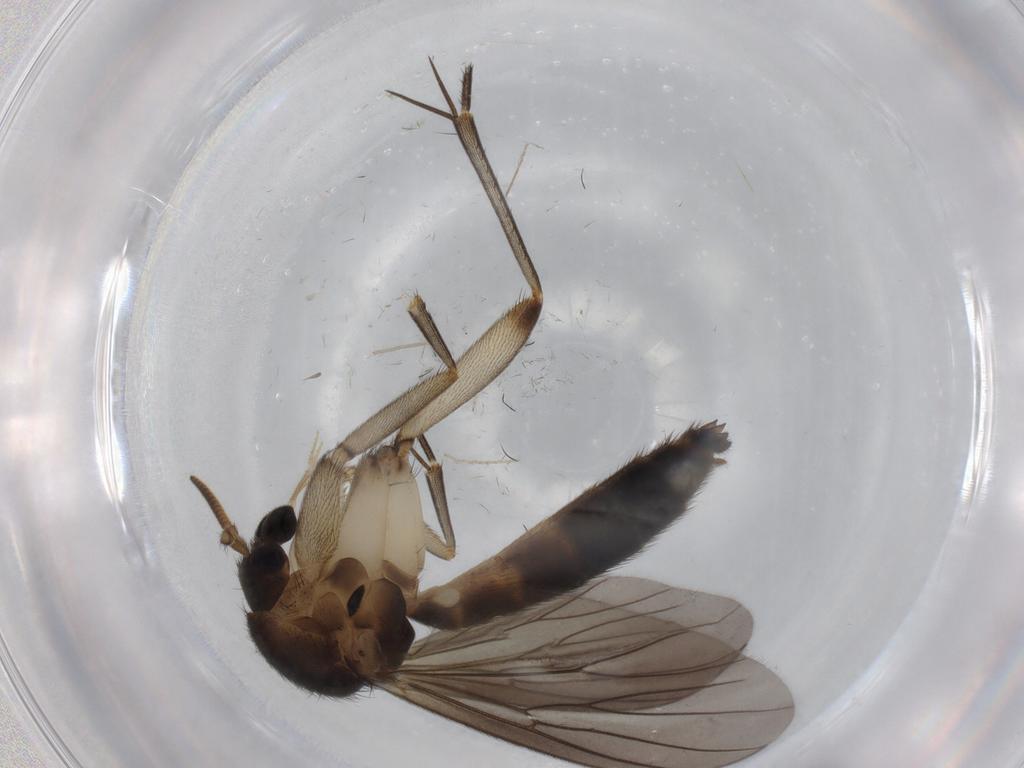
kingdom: Animalia
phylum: Arthropoda
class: Insecta
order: Diptera
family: Mycetophilidae
